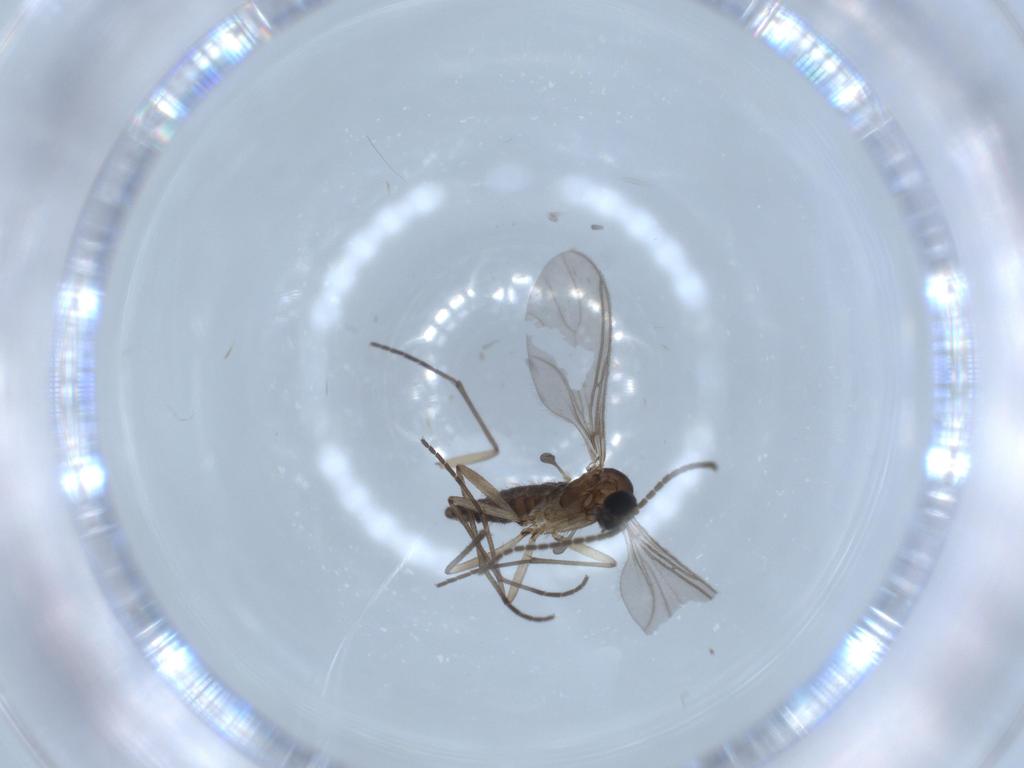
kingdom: Animalia
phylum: Arthropoda
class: Insecta
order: Diptera
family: Sciaridae
